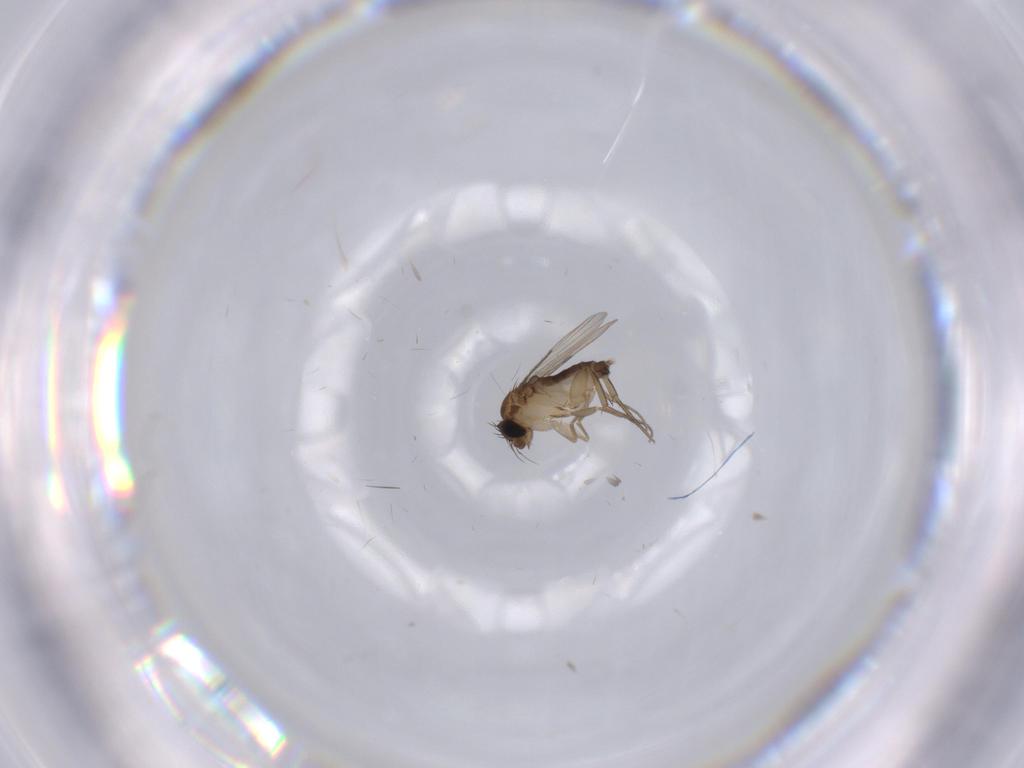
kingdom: Animalia
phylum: Arthropoda
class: Insecta
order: Diptera
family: Phoridae
